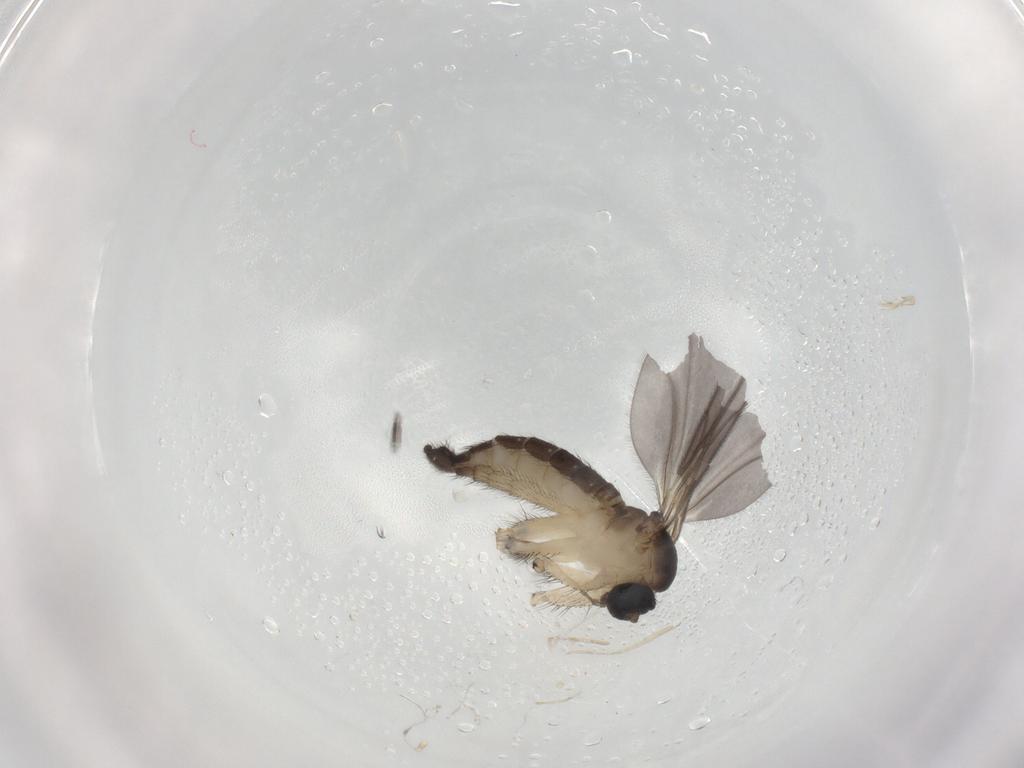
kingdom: Animalia
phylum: Arthropoda
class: Insecta
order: Diptera
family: Sciaridae
